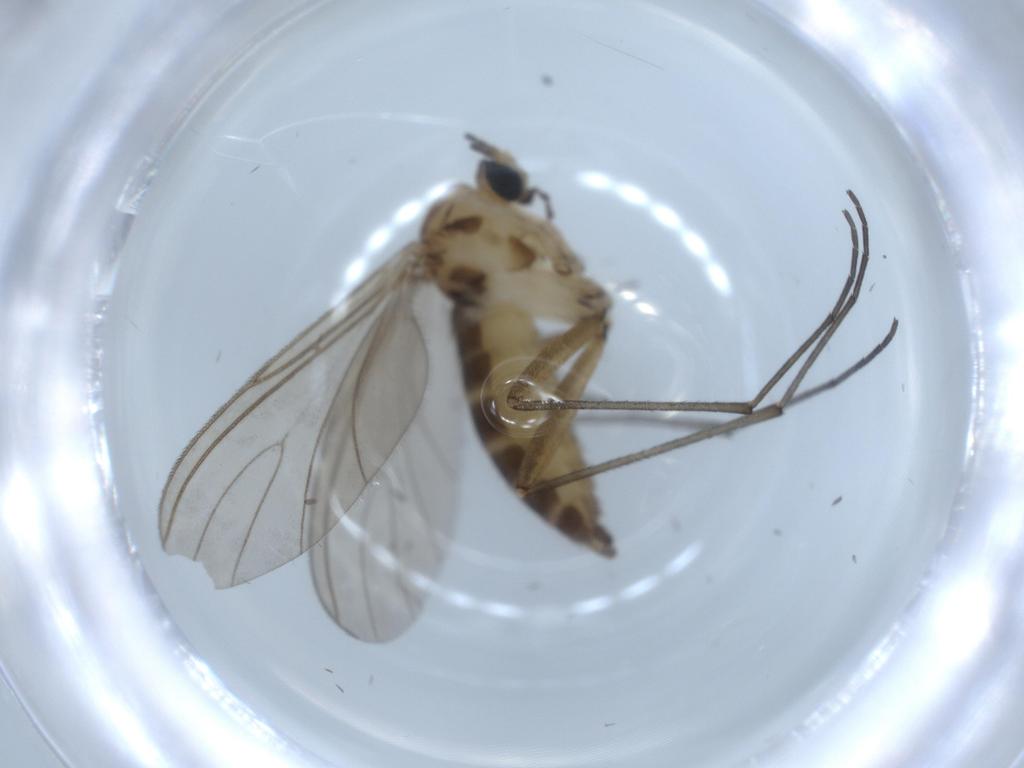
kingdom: Animalia
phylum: Arthropoda
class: Insecta
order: Diptera
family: Sciaridae
